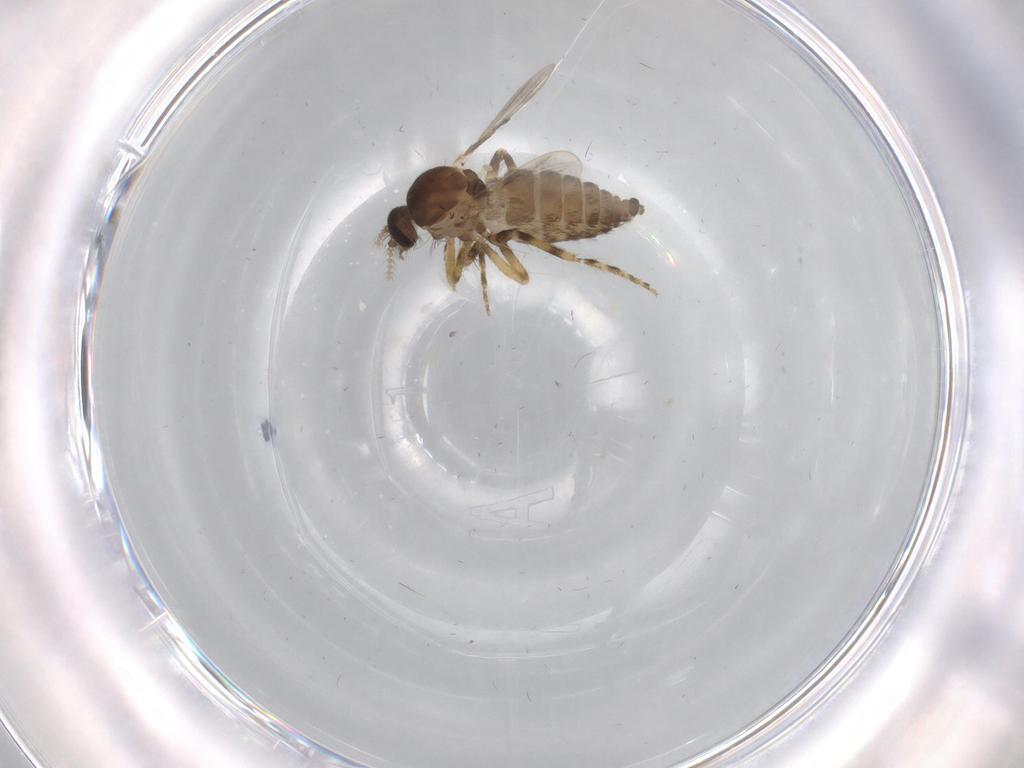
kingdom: Animalia
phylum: Arthropoda
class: Insecta
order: Diptera
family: Ceratopogonidae
